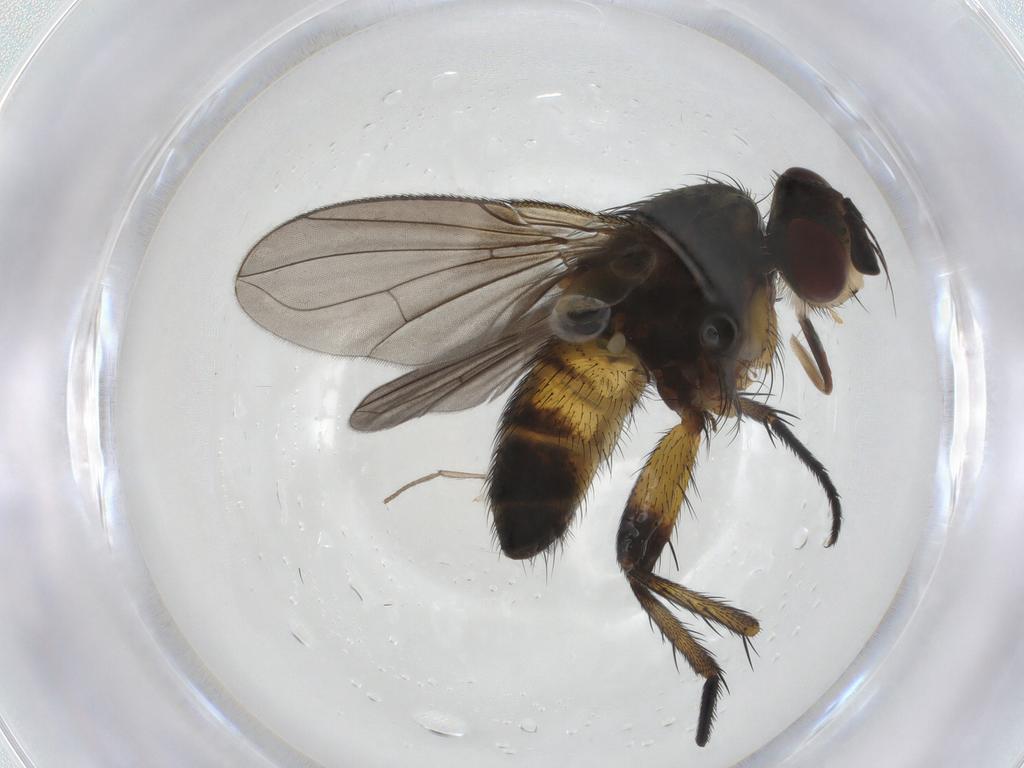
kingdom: Animalia
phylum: Arthropoda
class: Insecta
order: Diptera
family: Tachinidae
